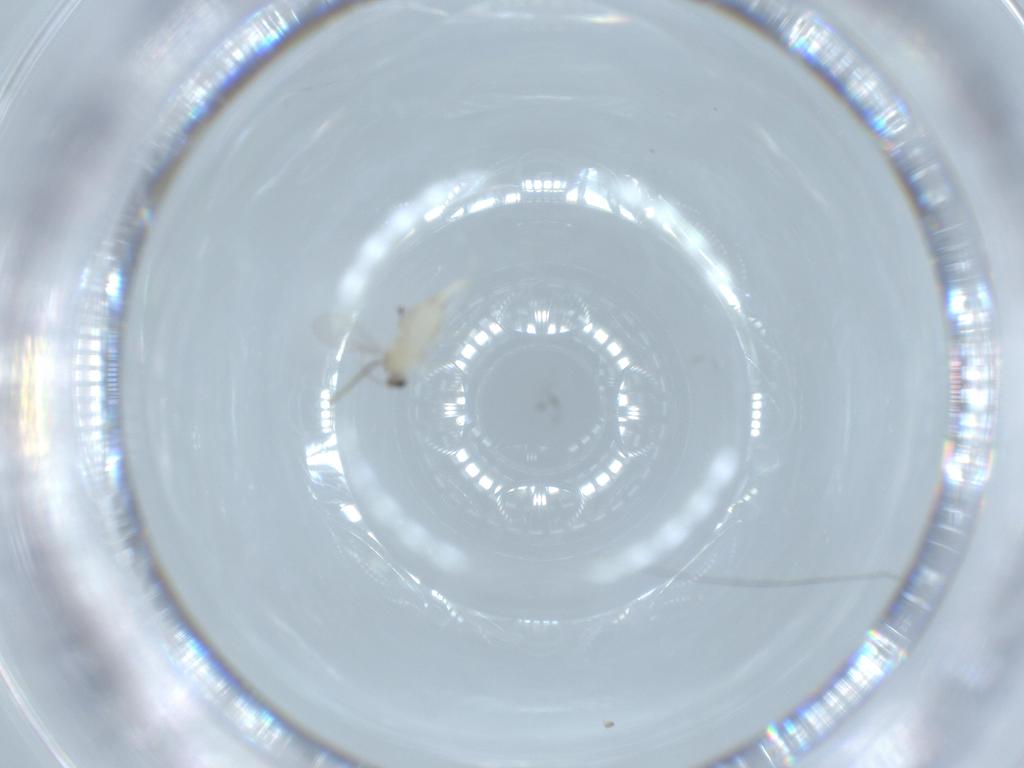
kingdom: Animalia
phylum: Arthropoda
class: Insecta
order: Diptera
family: Cecidomyiidae
